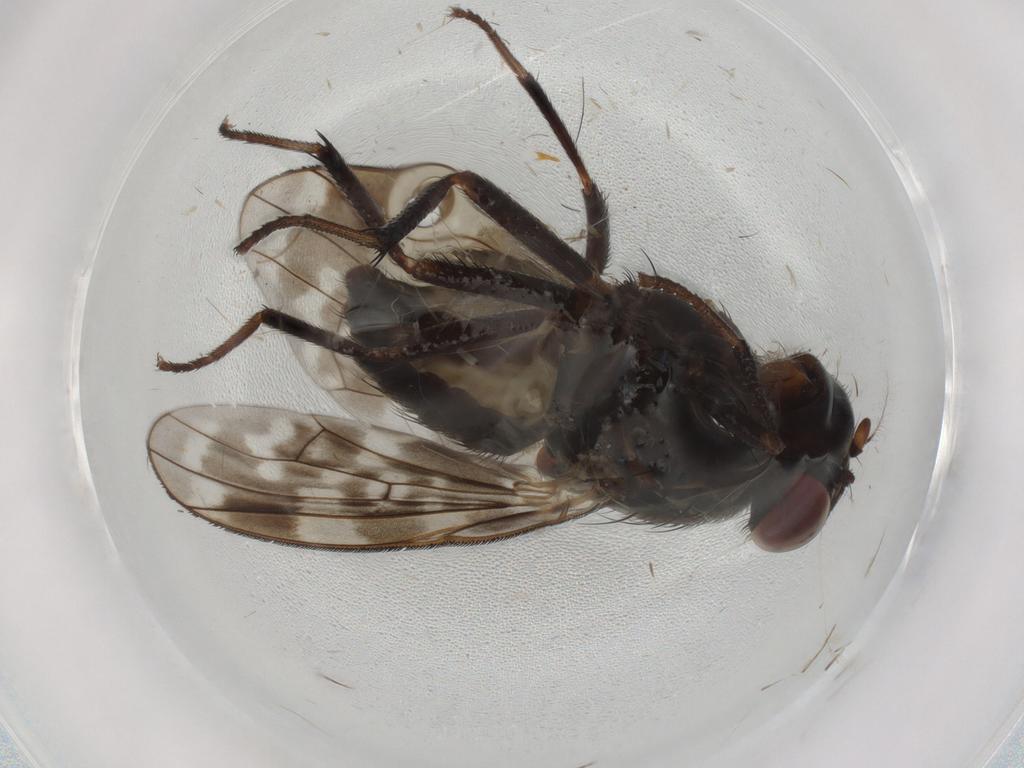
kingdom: Animalia
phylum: Arthropoda
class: Insecta
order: Diptera
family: Ceratopogonidae
